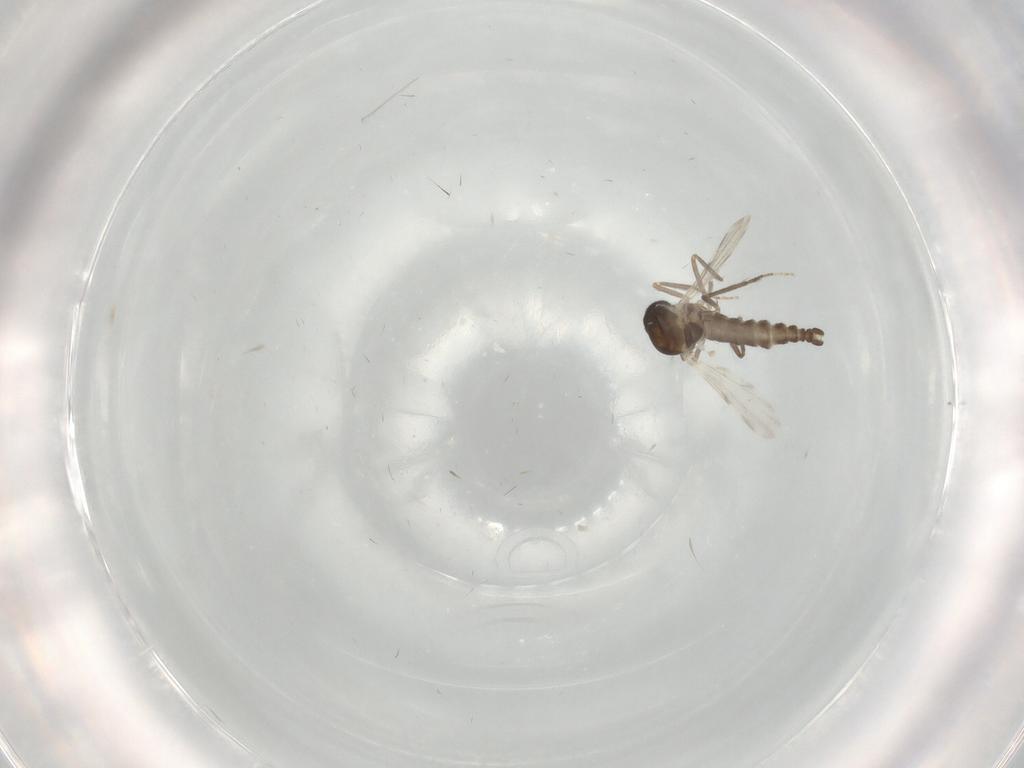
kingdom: Animalia
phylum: Arthropoda
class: Insecta
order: Diptera
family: Ceratopogonidae
